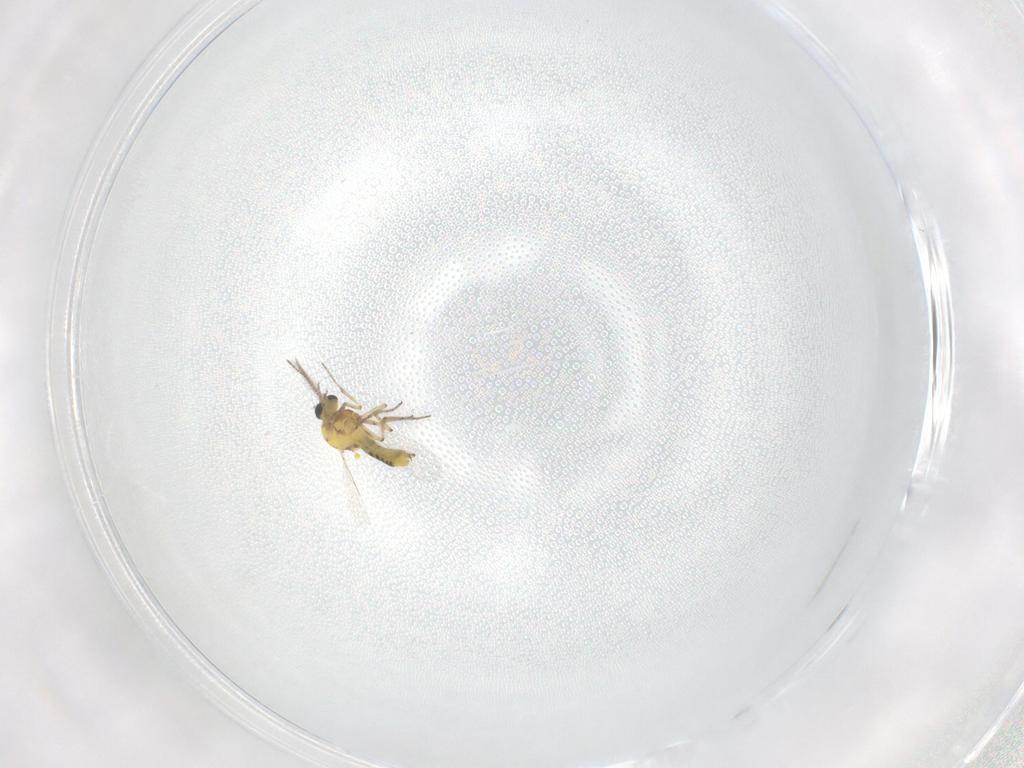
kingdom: Animalia
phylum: Arthropoda
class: Insecta
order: Diptera
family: Ceratopogonidae
